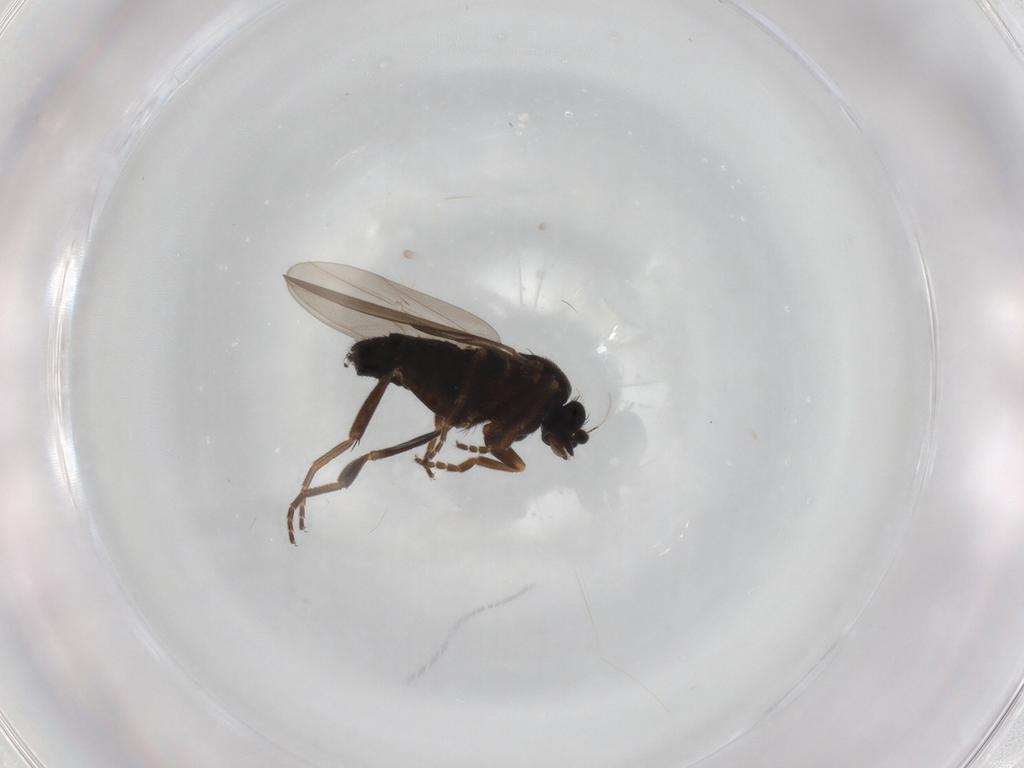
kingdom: Animalia
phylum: Arthropoda
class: Insecta
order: Diptera
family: Phoridae
